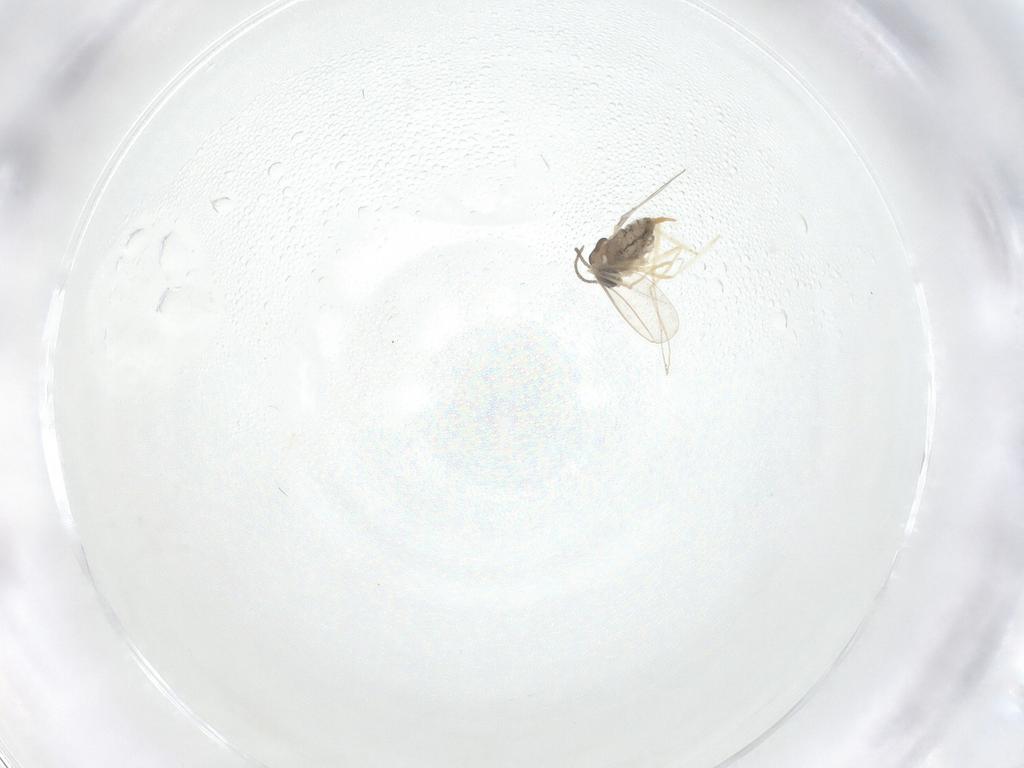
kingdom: Animalia
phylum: Arthropoda
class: Insecta
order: Diptera
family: Cecidomyiidae
